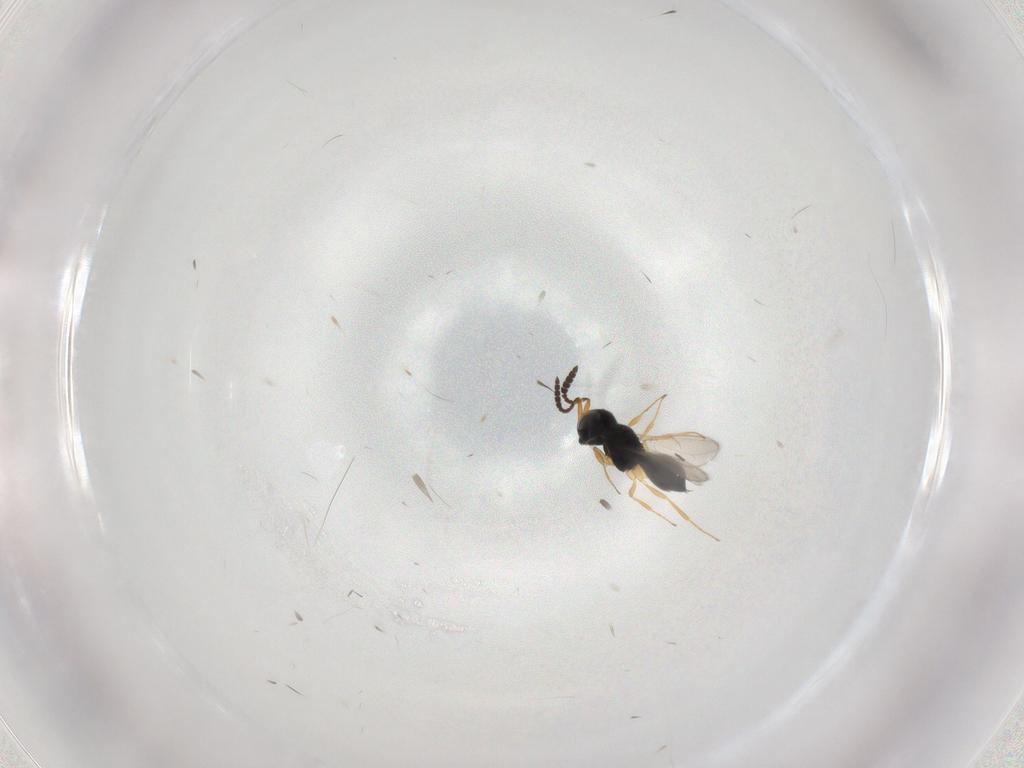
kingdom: Animalia
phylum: Arthropoda
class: Insecta
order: Hymenoptera
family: Scelionidae
